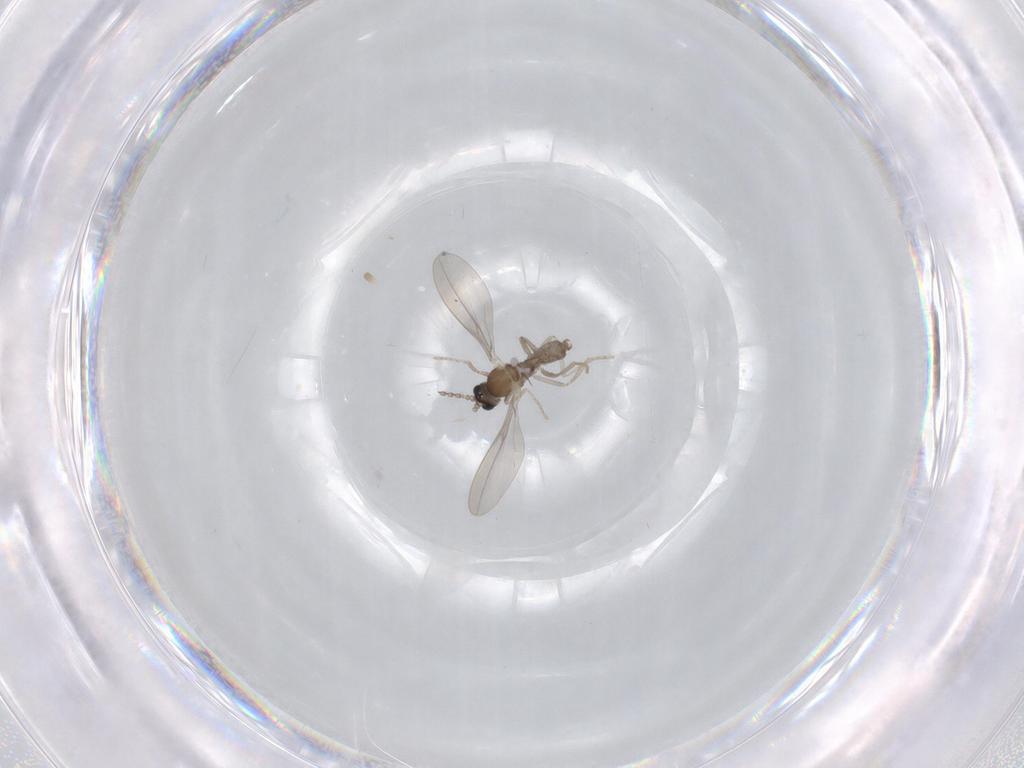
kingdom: Animalia
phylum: Arthropoda
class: Insecta
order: Diptera
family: Cecidomyiidae
